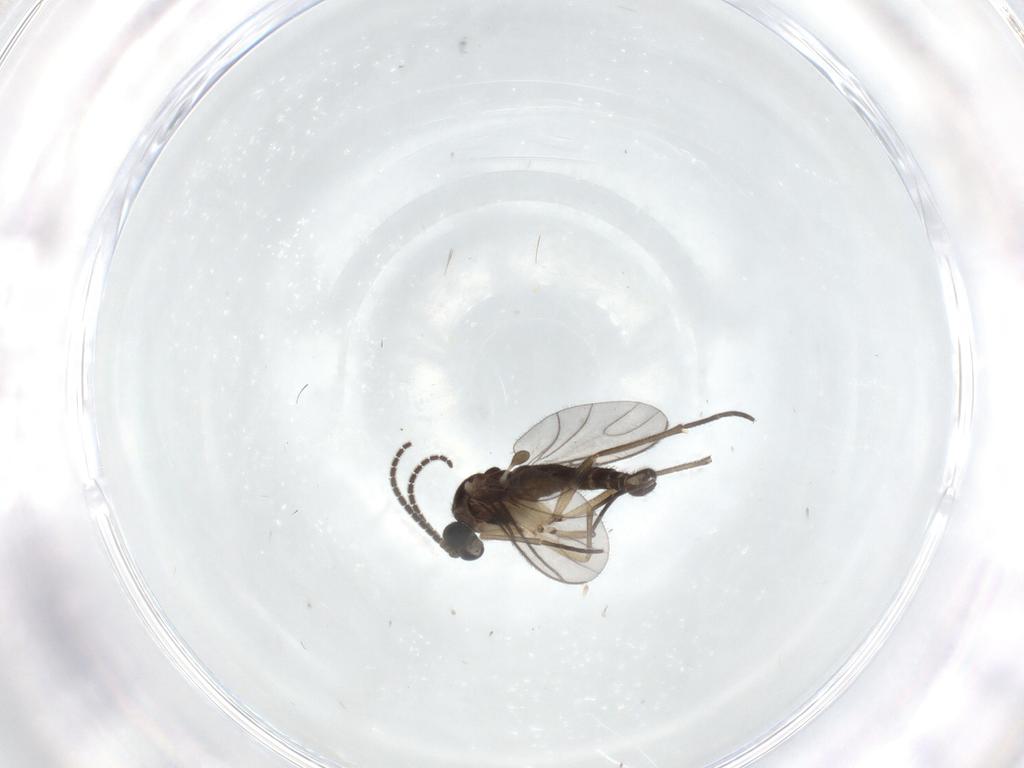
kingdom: Animalia
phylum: Arthropoda
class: Insecta
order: Diptera
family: Sciaridae
